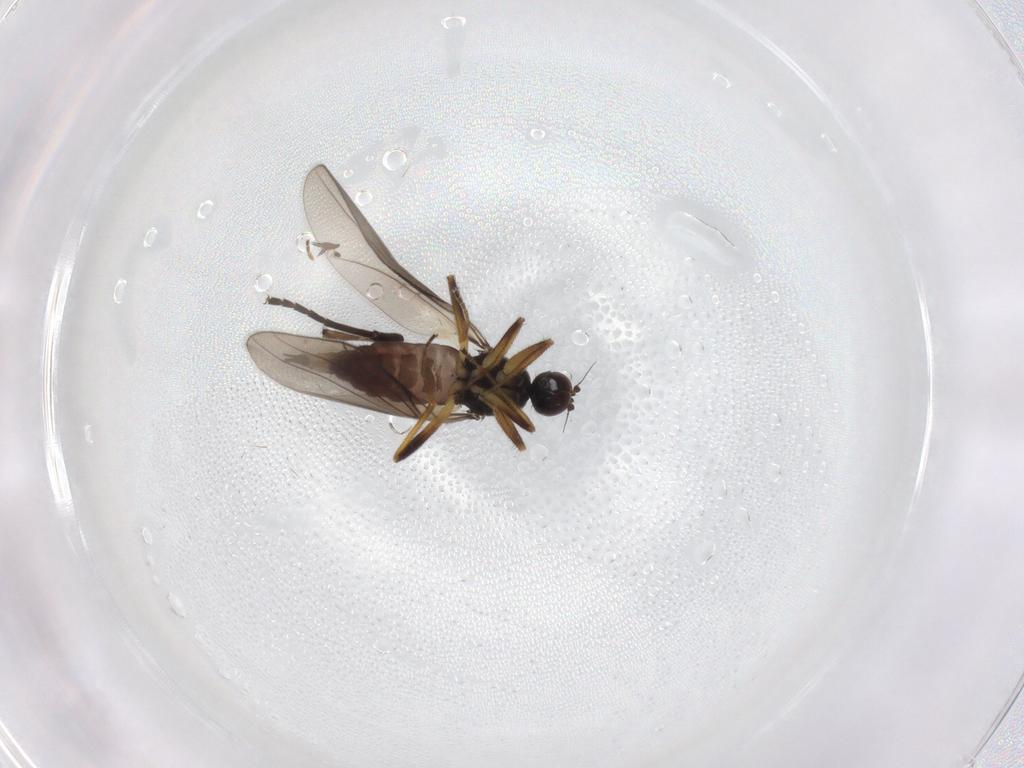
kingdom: Animalia
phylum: Arthropoda
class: Insecta
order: Diptera
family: Hybotidae
